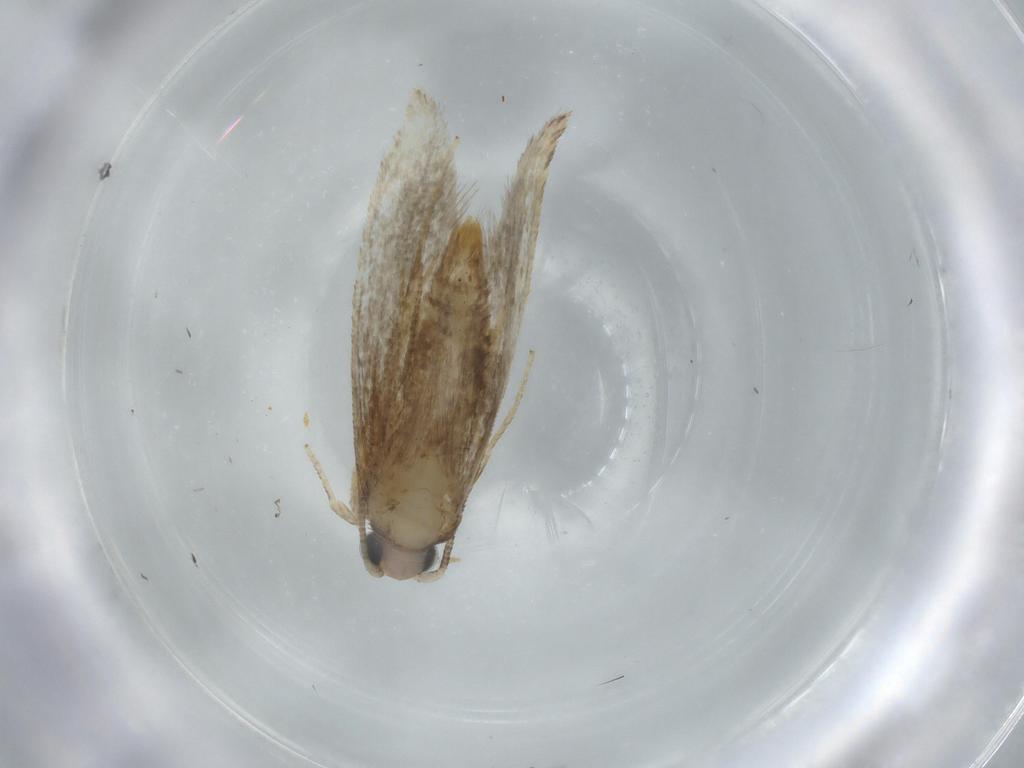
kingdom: Animalia
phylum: Arthropoda
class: Insecta
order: Lepidoptera
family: Tineidae
